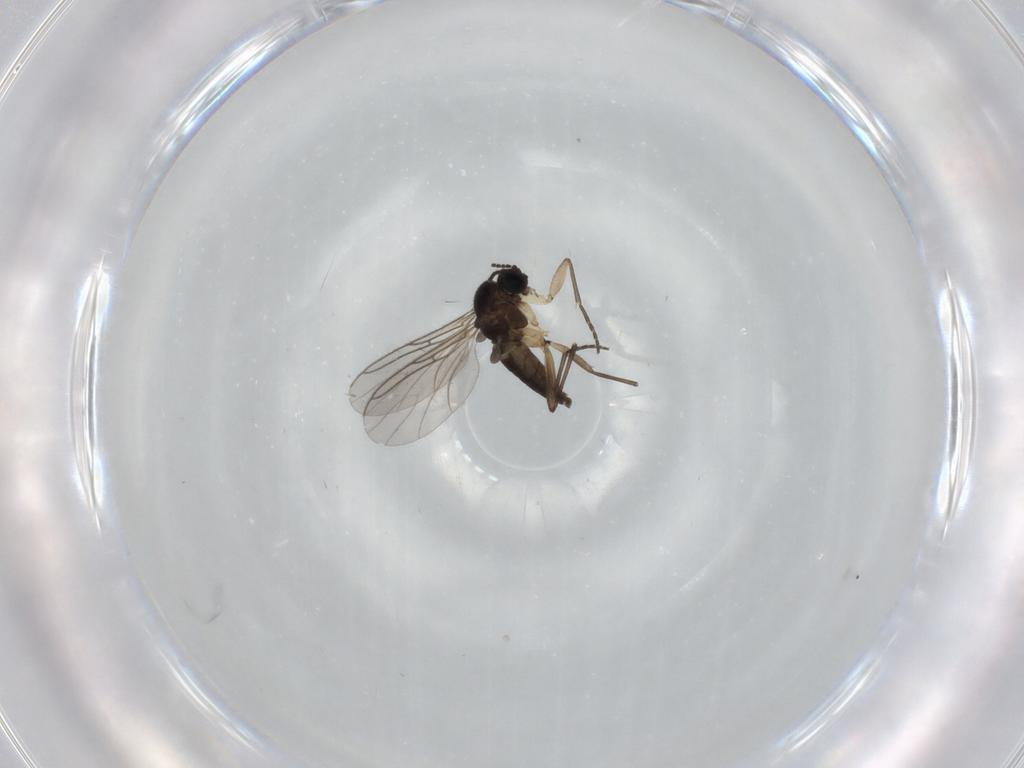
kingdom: Animalia
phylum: Arthropoda
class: Insecta
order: Diptera
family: Sciaridae
